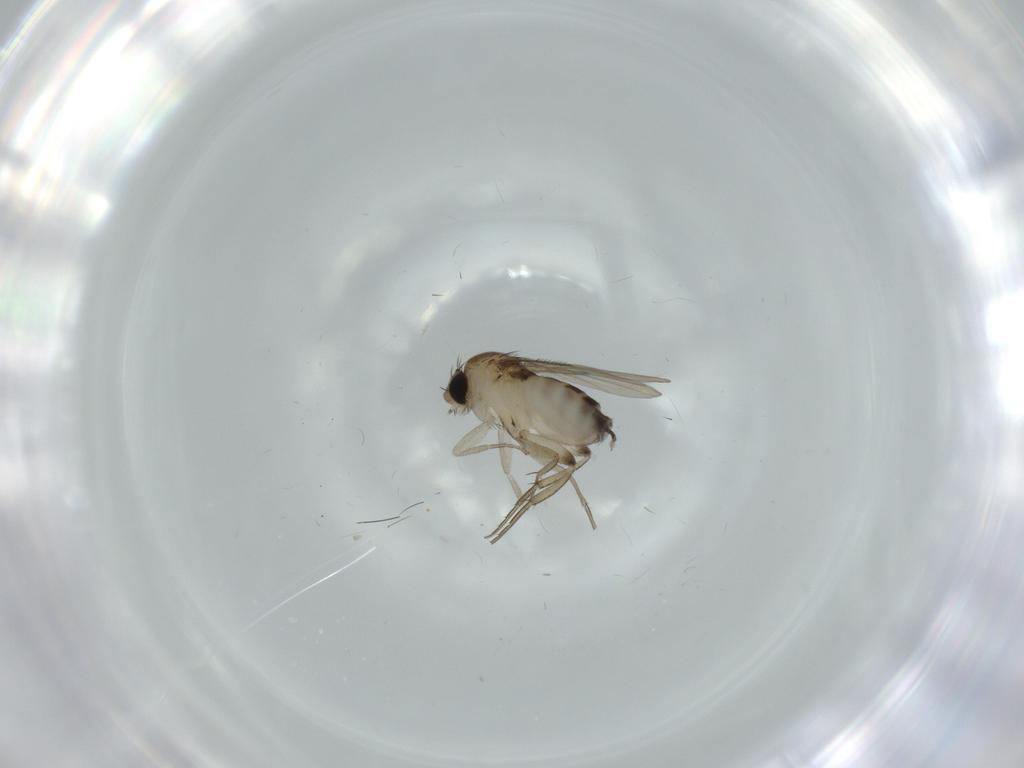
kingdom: Animalia
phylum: Arthropoda
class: Insecta
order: Diptera
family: Phoridae
